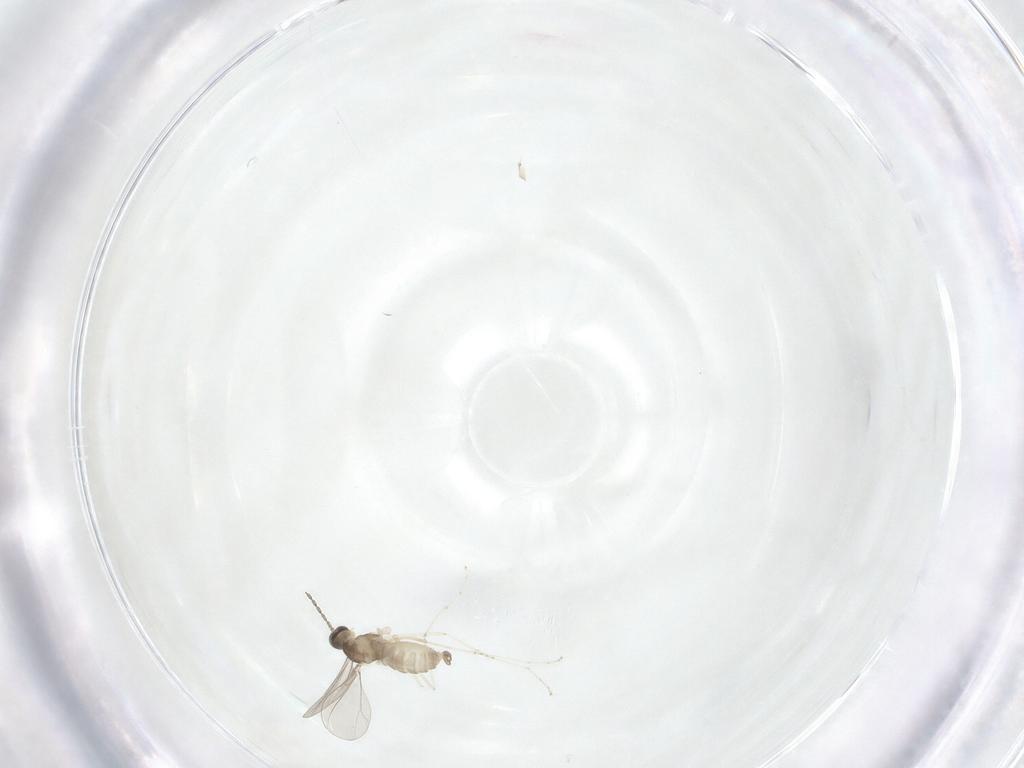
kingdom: Animalia
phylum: Arthropoda
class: Insecta
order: Diptera
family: Cecidomyiidae
